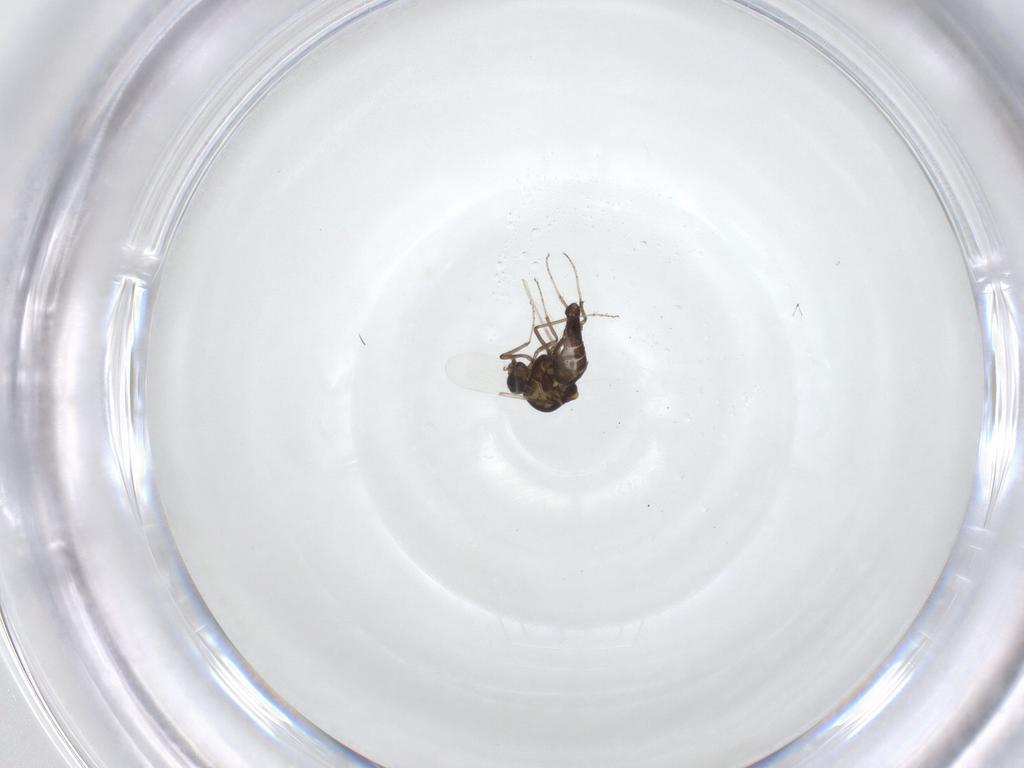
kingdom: Animalia
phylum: Arthropoda
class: Insecta
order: Diptera
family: Ceratopogonidae
